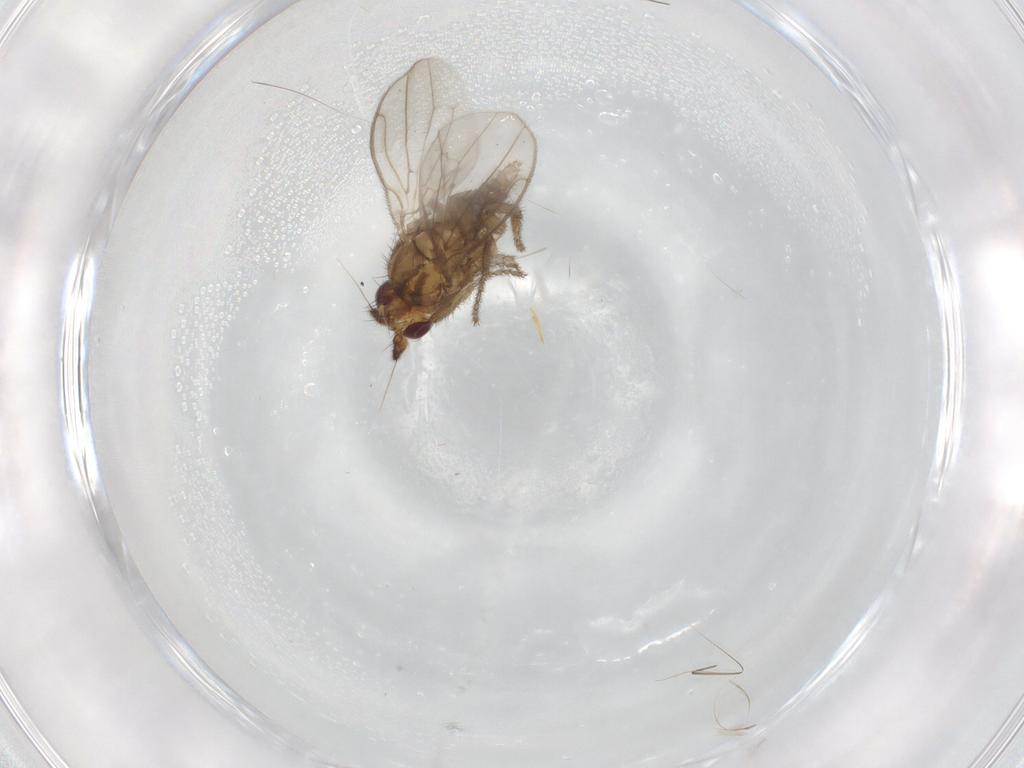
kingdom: Animalia
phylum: Arthropoda
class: Insecta
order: Diptera
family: Sphaeroceridae
